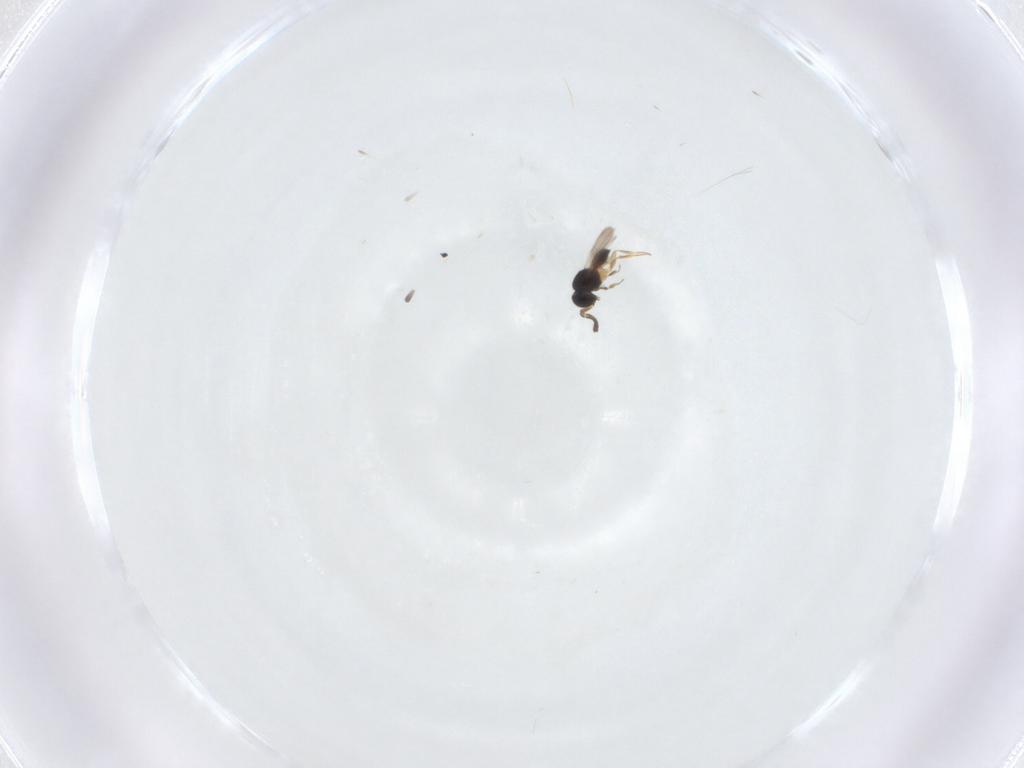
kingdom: Animalia
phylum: Arthropoda
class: Insecta
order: Hymenoptera
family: Scelionidae
